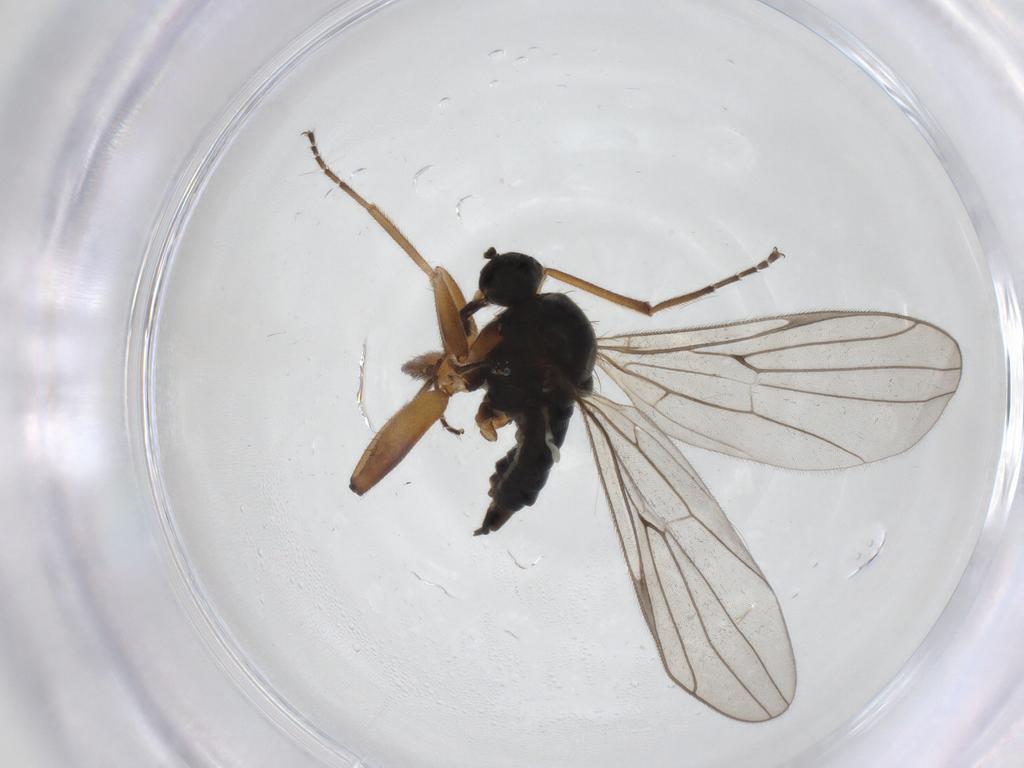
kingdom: Animalia
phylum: Arthropoda
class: Insecta
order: Diptera
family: Hybotidae
